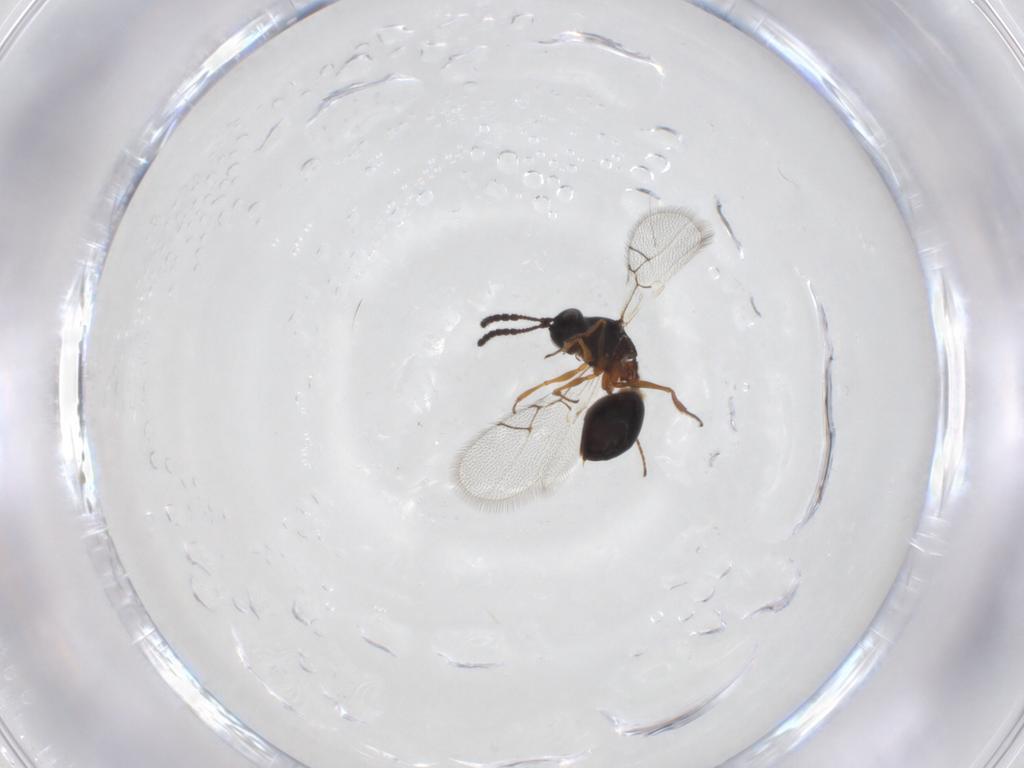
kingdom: Animalia
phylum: Arthropoda
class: Insecta
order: Hymenoptera
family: Figitidae
